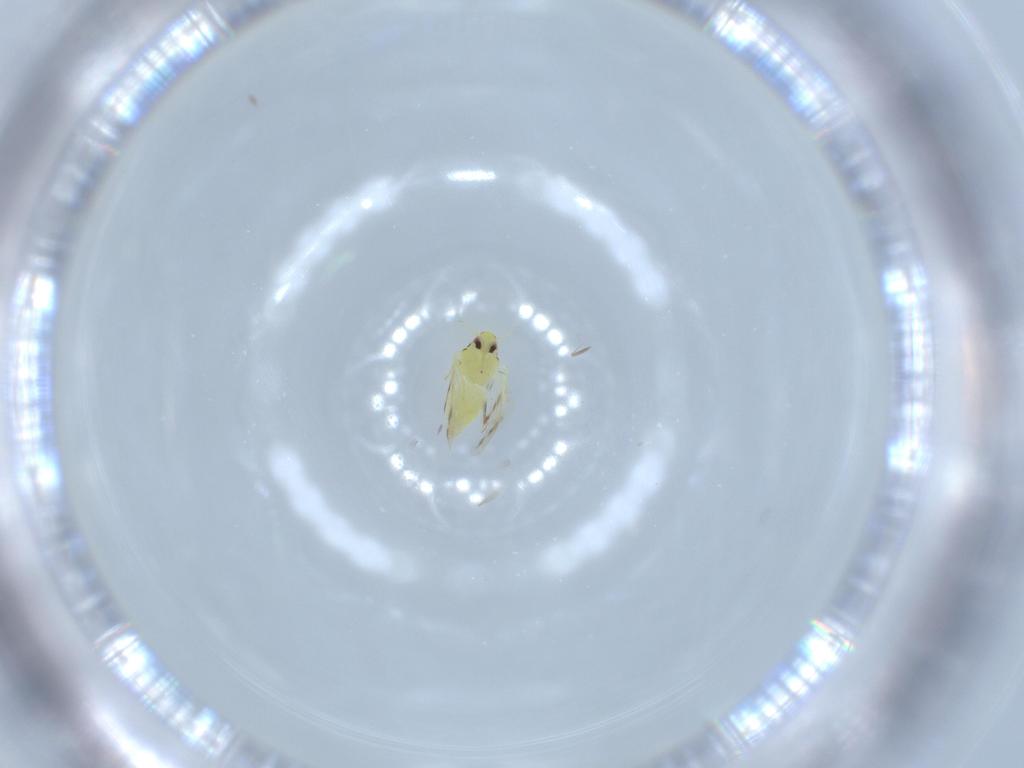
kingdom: Animalia
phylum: Arthropoda
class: Insecta
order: Hemiptera
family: Aleyrodidae
